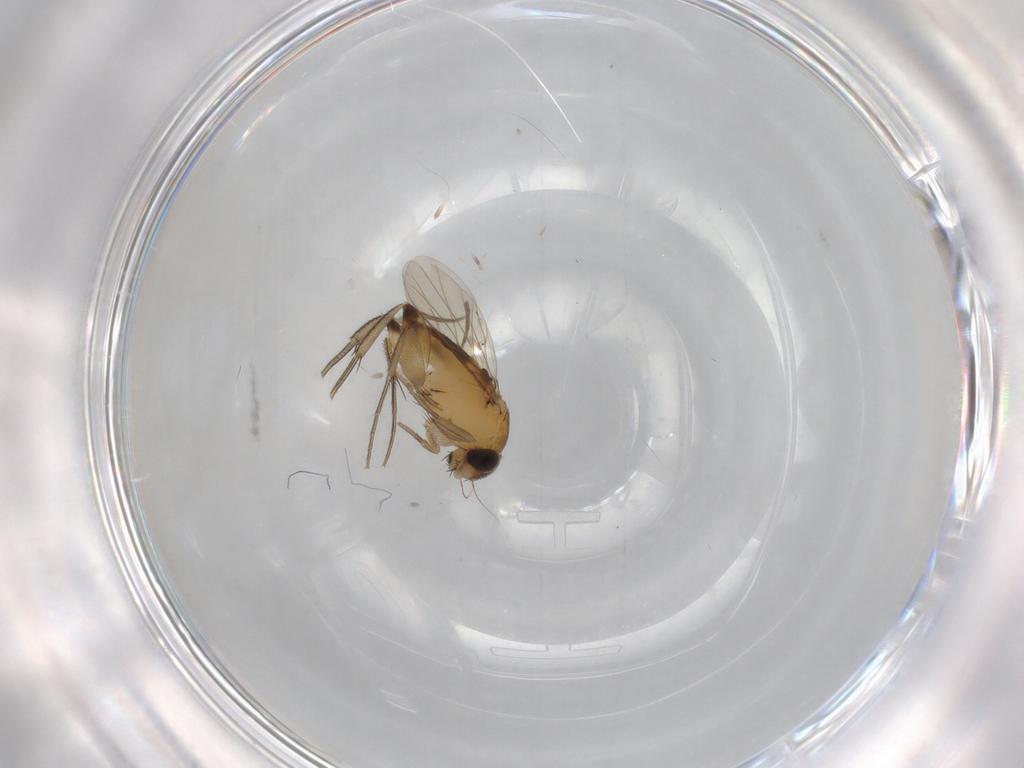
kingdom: Animalia
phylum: Arthropoda
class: Insecta
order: Diptera
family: Phoridae
